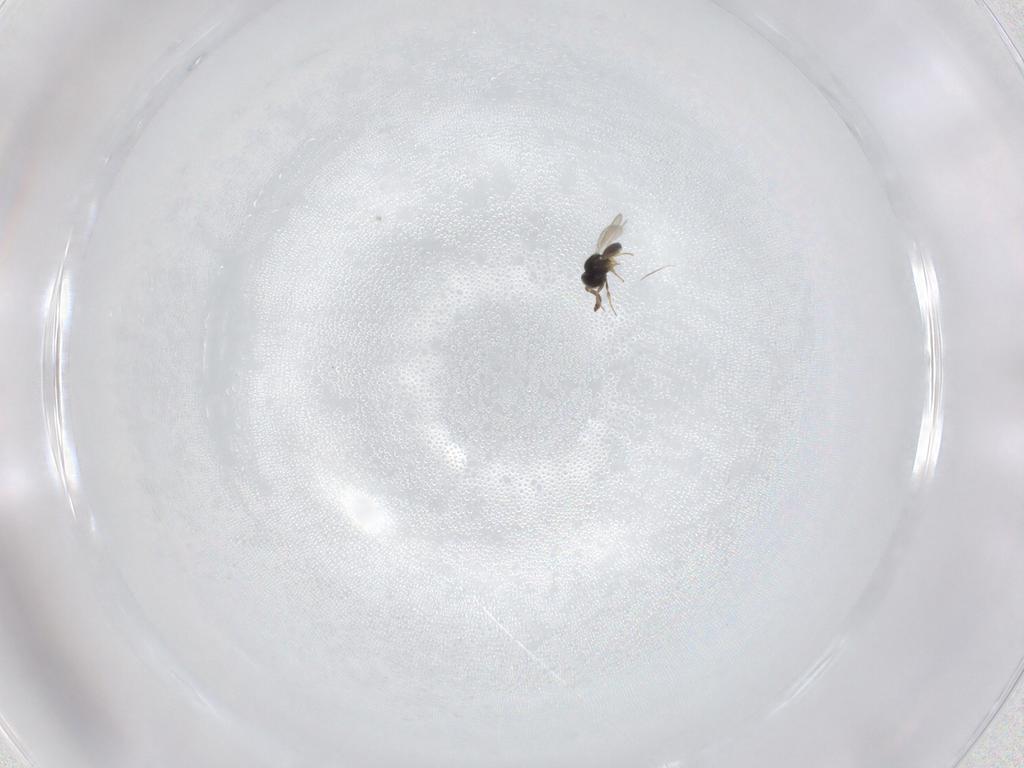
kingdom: Animalia
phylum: Arthropoda
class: Insecta
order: Hymenoptera
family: Scelionidae
